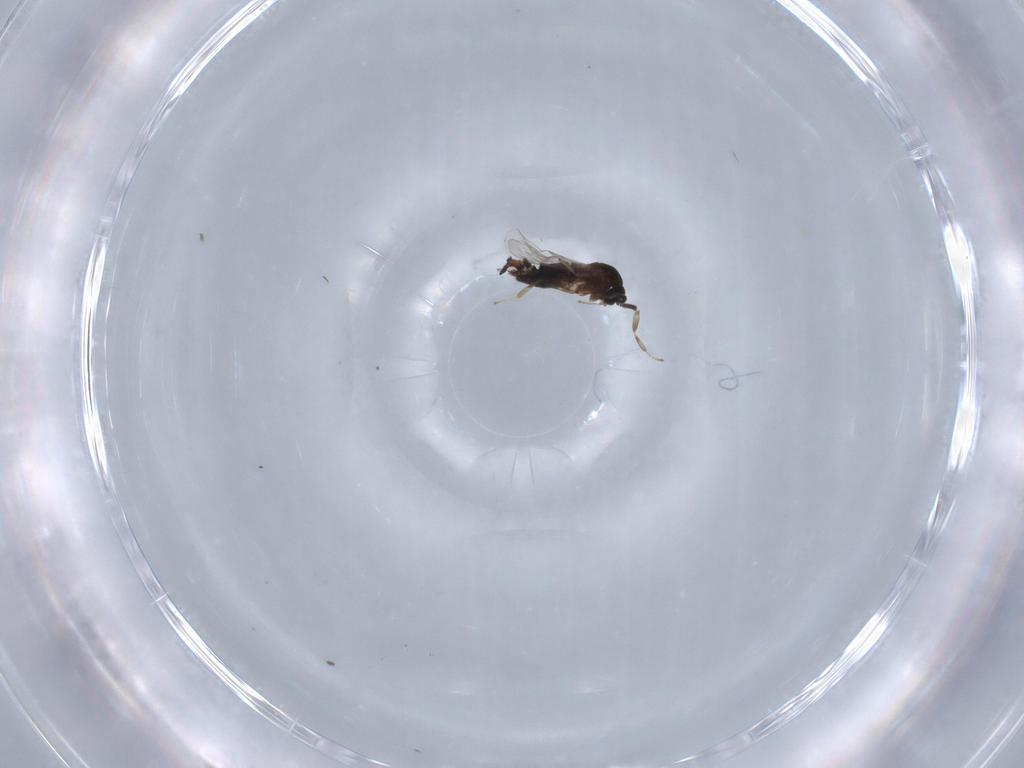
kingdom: Animalia
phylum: Arthropoda
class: Insecta
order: Diptera
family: Scatopsidae
